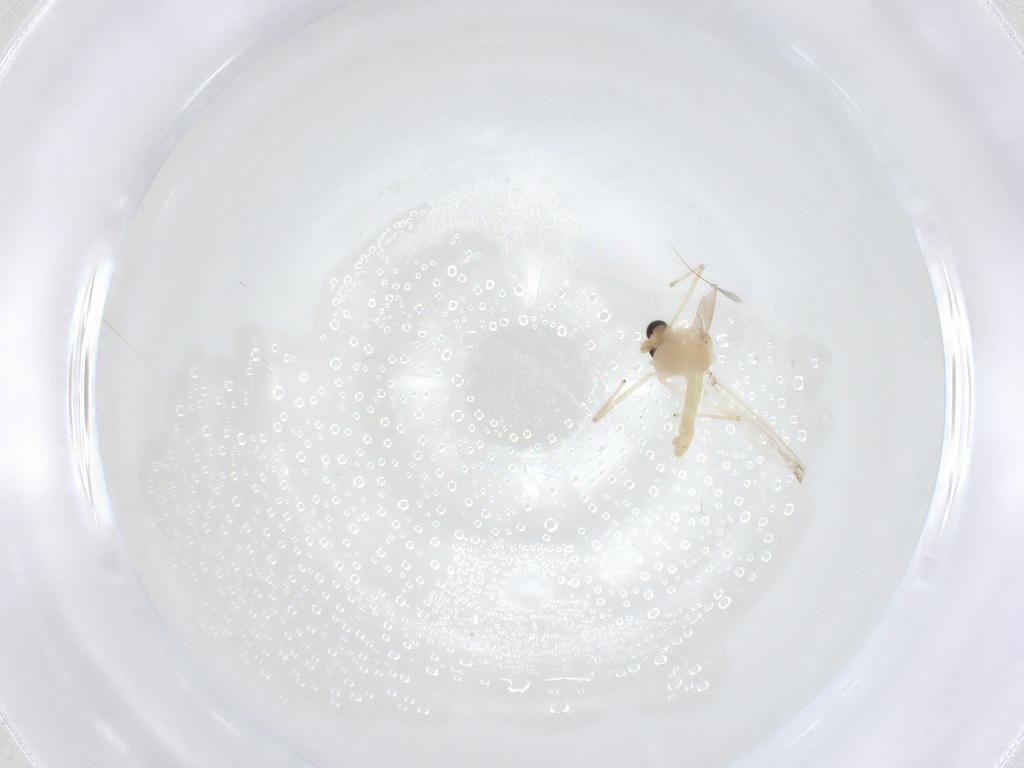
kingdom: Animalia
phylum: Arthropoda
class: Insecta
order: Diptera
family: Chironomidae
